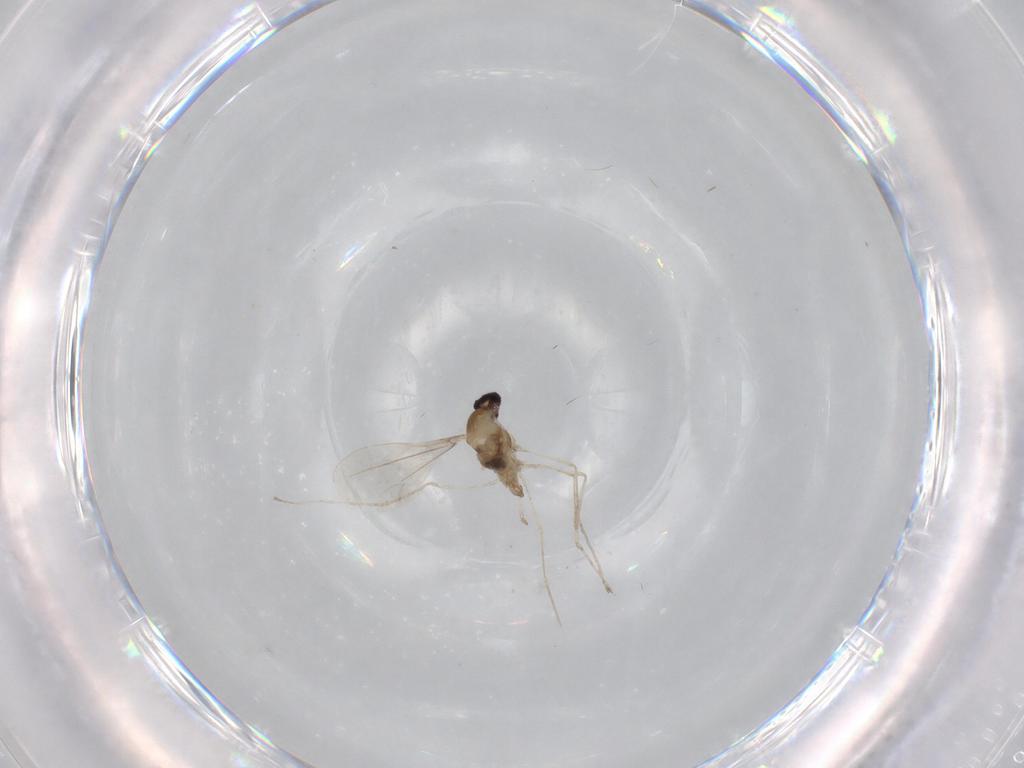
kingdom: Animalia
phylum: Arthropoda
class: Insecta
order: Diptera
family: Cecidomyiidae
